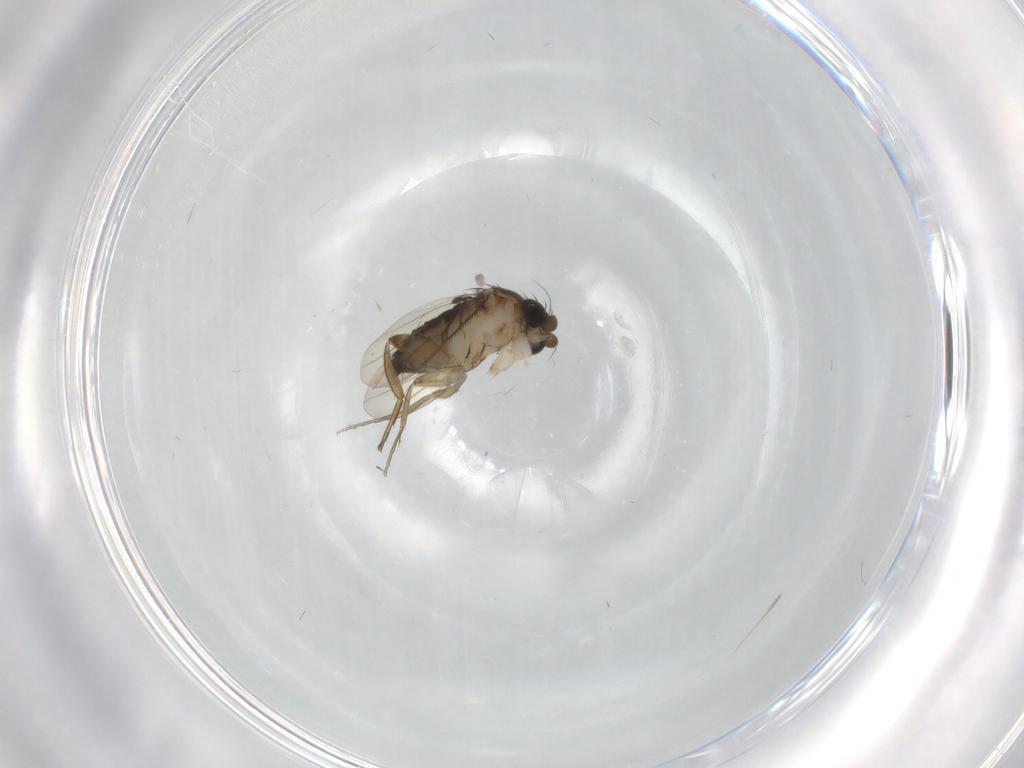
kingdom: Animalia
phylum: Arthropoda
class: Insecta
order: Diptera
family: Phoridae
